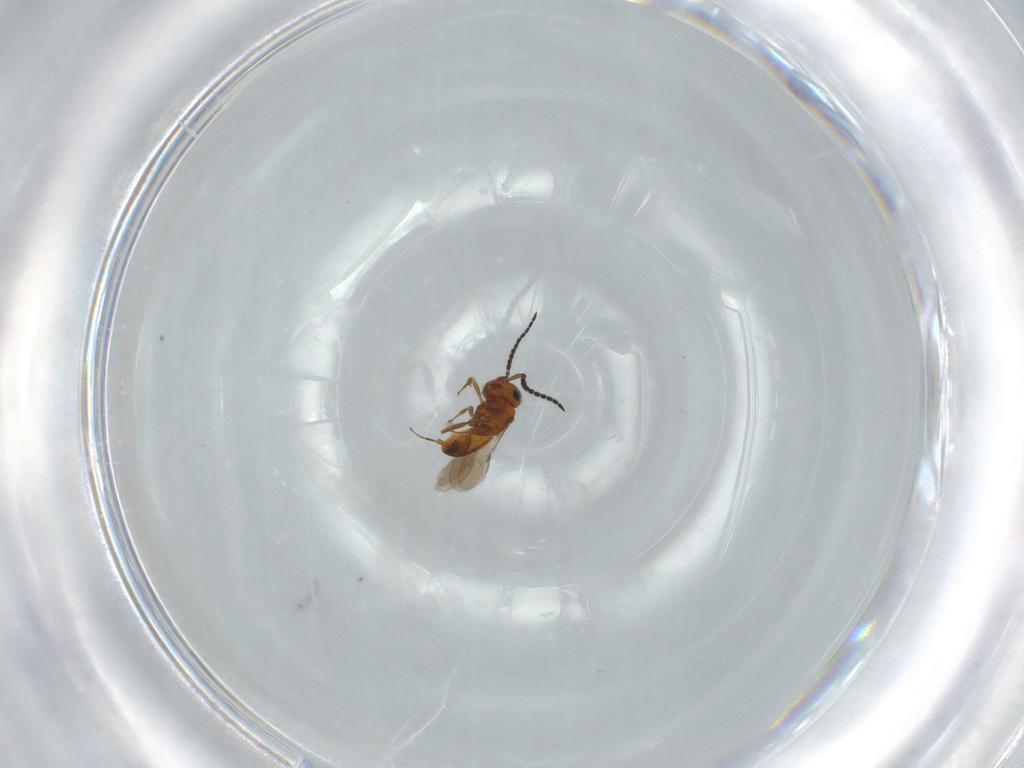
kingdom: Animalia
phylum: Arthropoda
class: Insecta
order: Hymenoptera
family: Scelionidae
